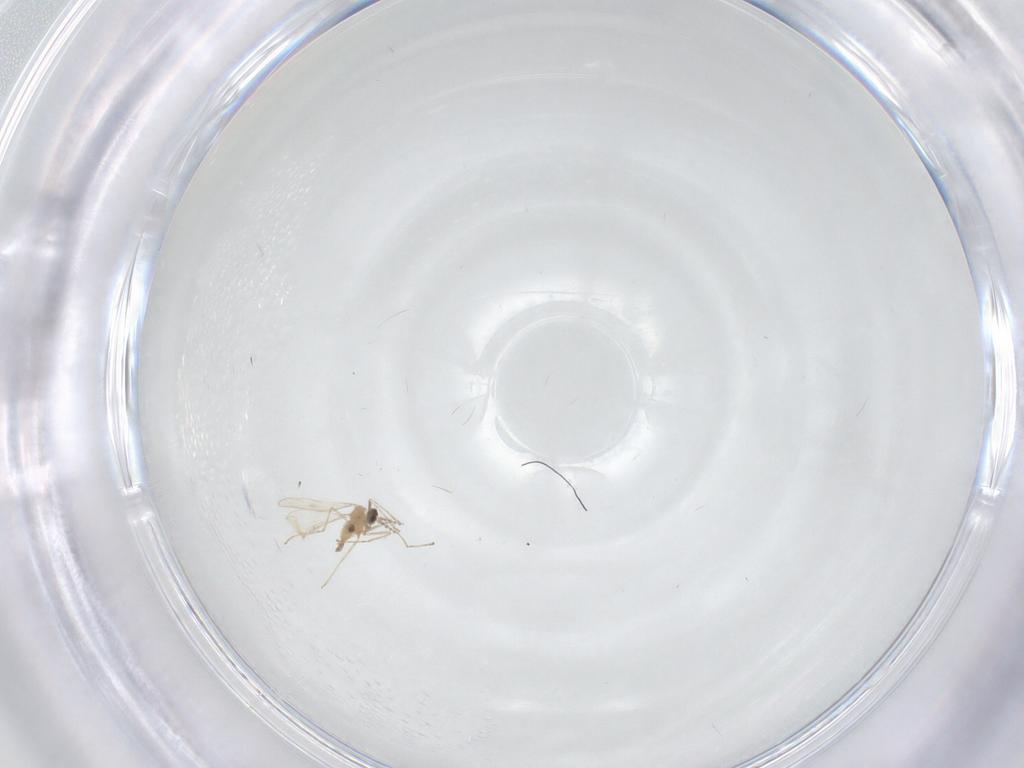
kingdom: Animalia
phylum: Arthropoda
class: Insecta
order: Diptera
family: Cecidomyiidae
